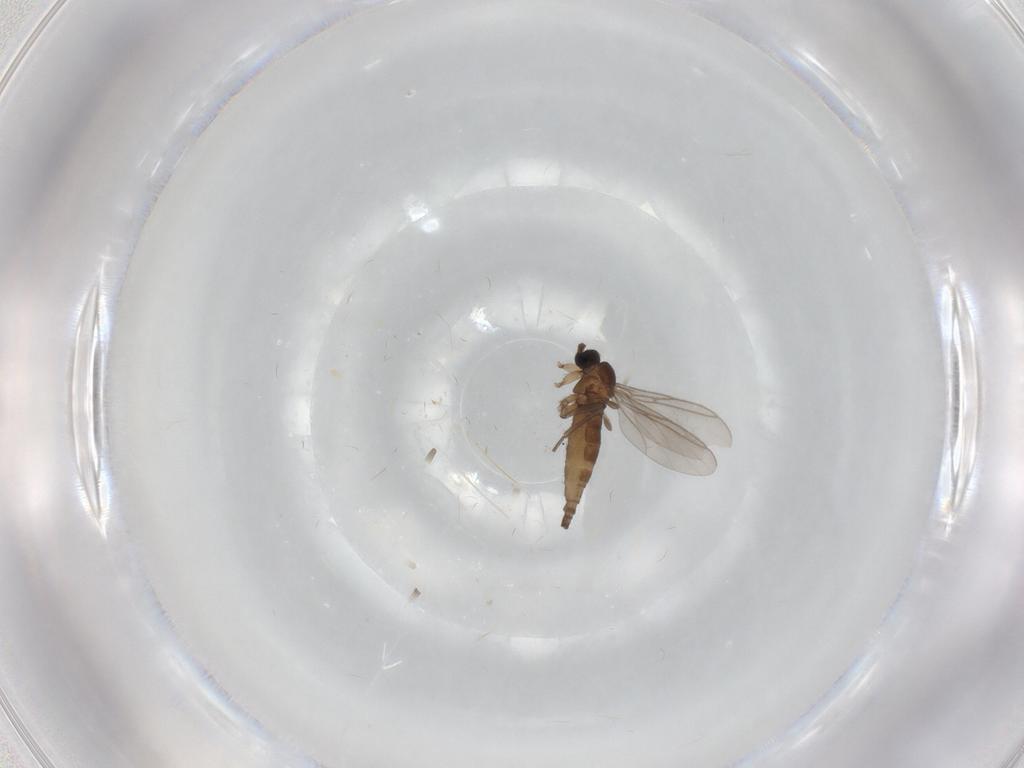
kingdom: Animalia
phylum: Arthropoda
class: Insecta
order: Diptera
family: Sciaridae
